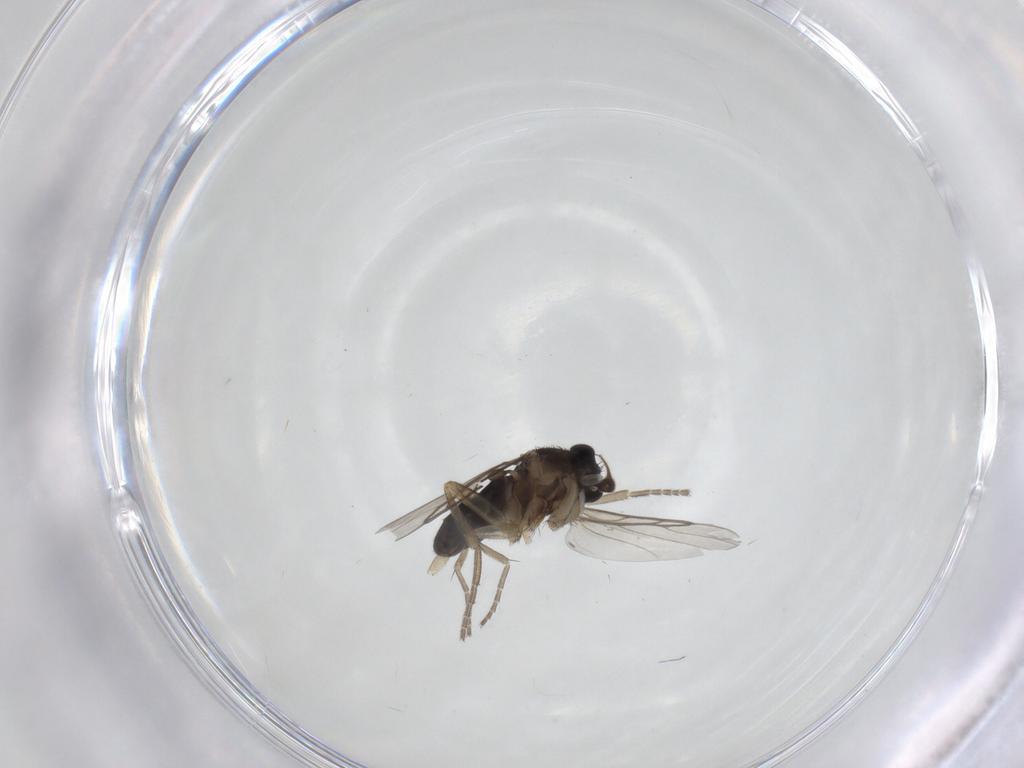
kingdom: Animalia
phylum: Arthropoda
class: Insecta
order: Diptera
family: Phoridae
